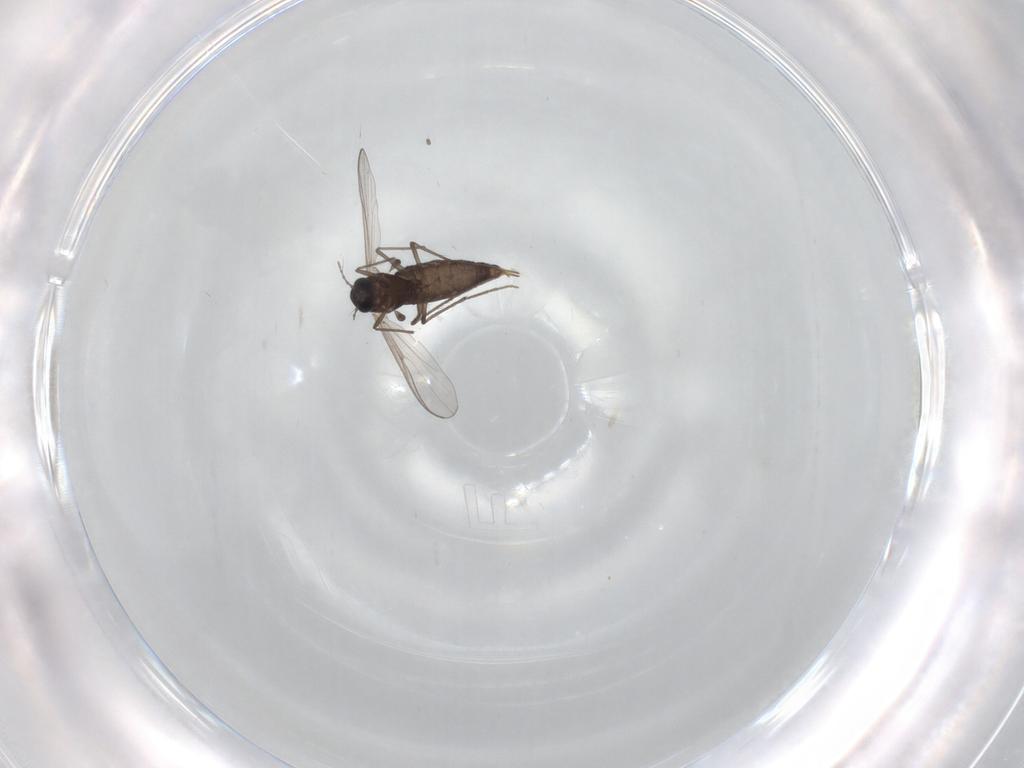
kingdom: Animalia
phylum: Arthropoda
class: Insecta
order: Diptera
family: Chironomidae
